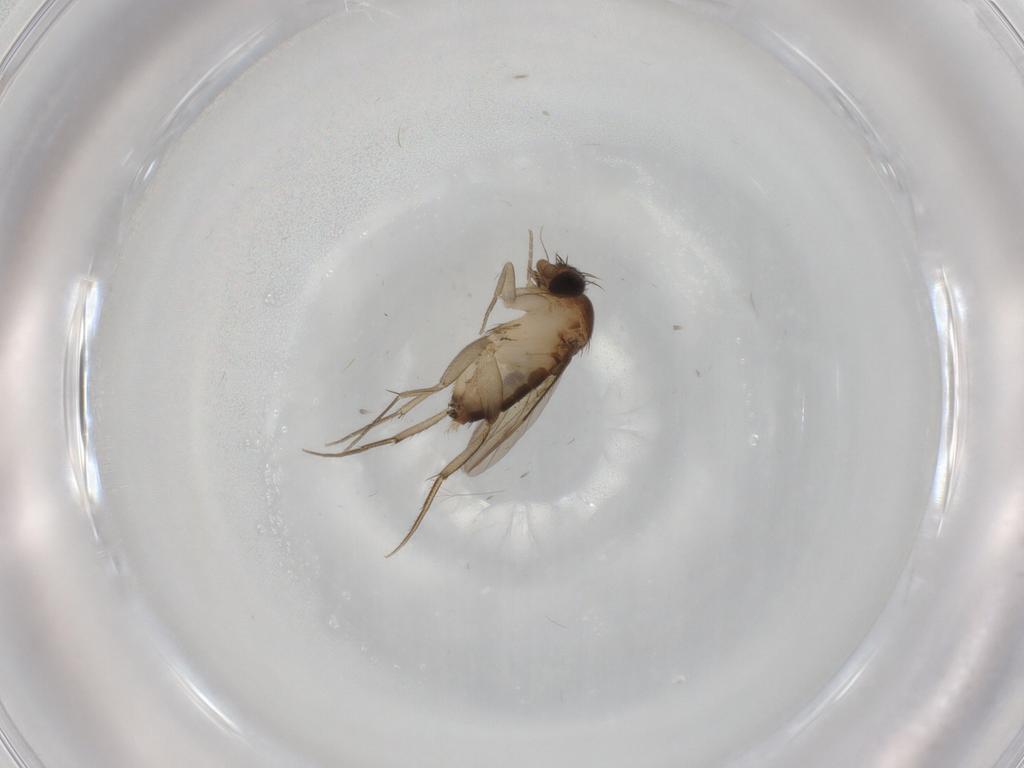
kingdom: Animalia
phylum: Arthropoda
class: Insecta
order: Diptera
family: Phoridae
